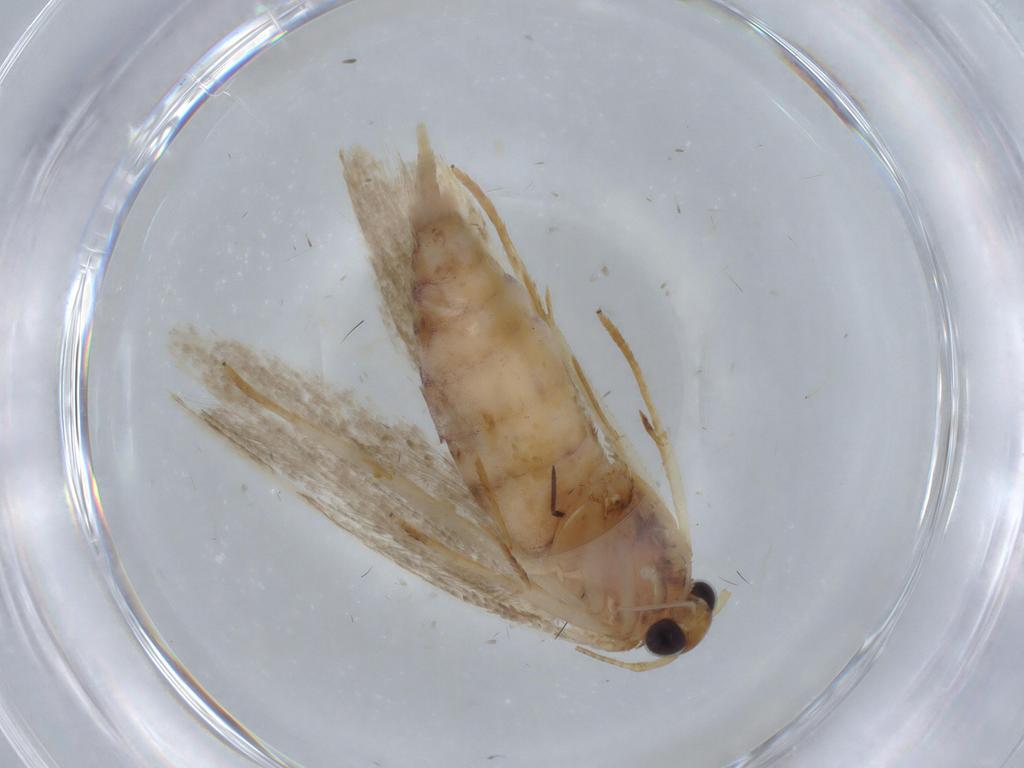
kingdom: Animalia
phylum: Arthropoda
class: Insecta
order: Lepidoptera
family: Blastobasidae
